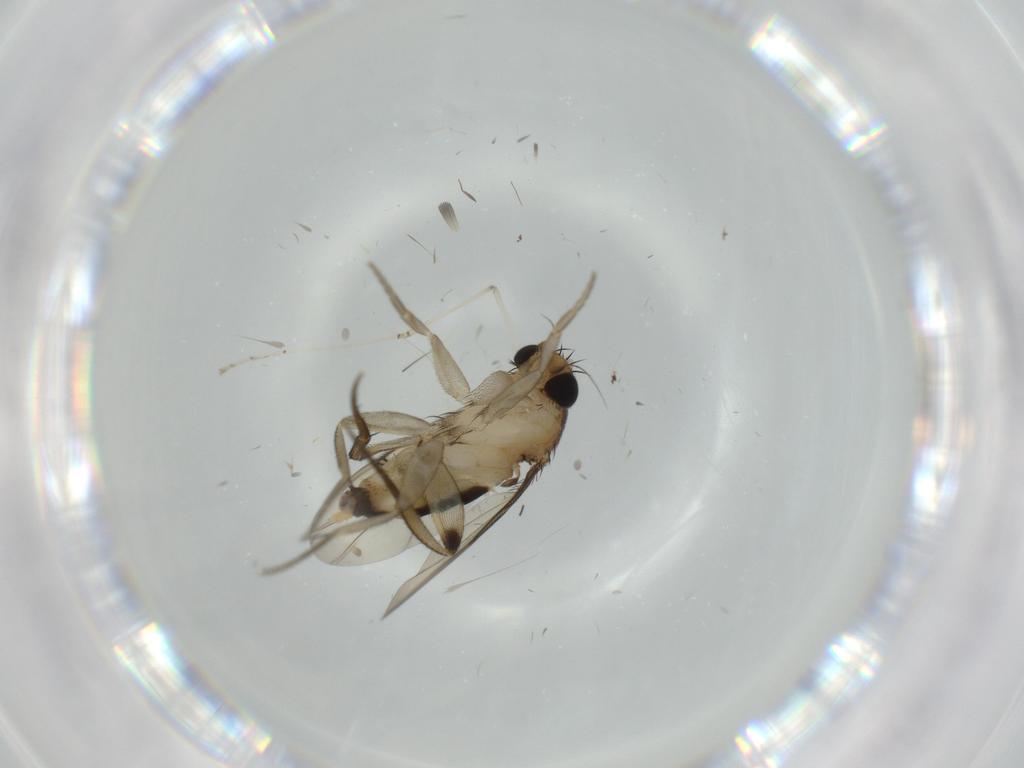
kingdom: Animalia
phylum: Arthropoda
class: Insecta
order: Diptera
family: Phoridae
